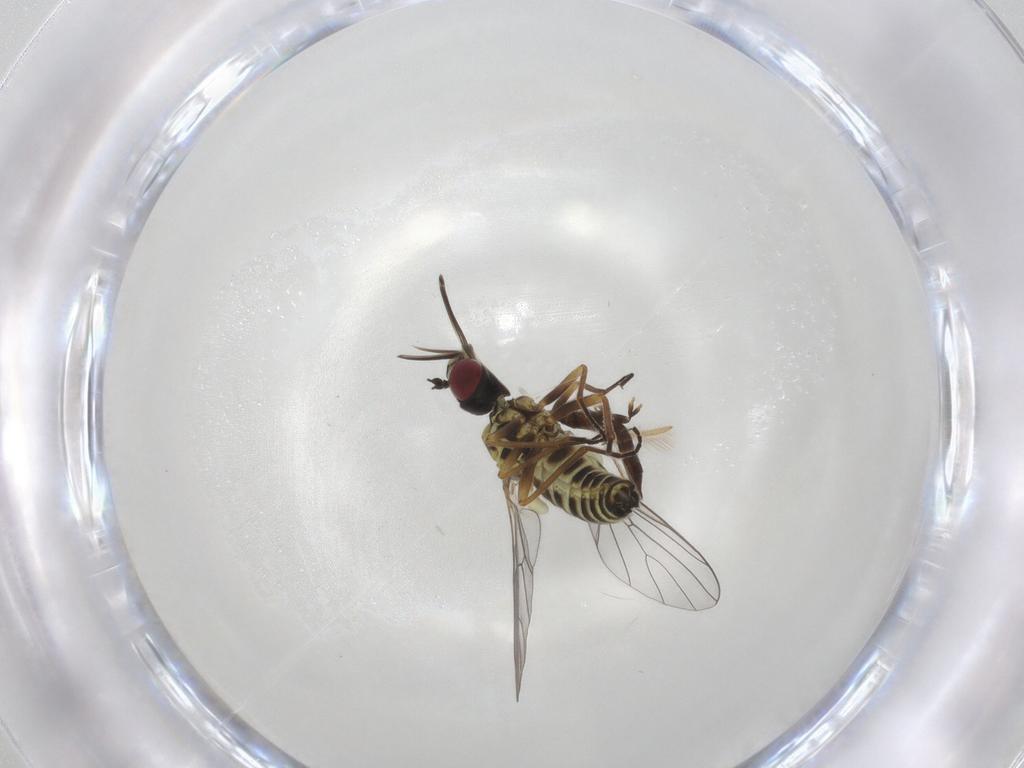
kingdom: Animalia
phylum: Arthropoda
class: Insecta
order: Diptera
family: Bombyliidae
